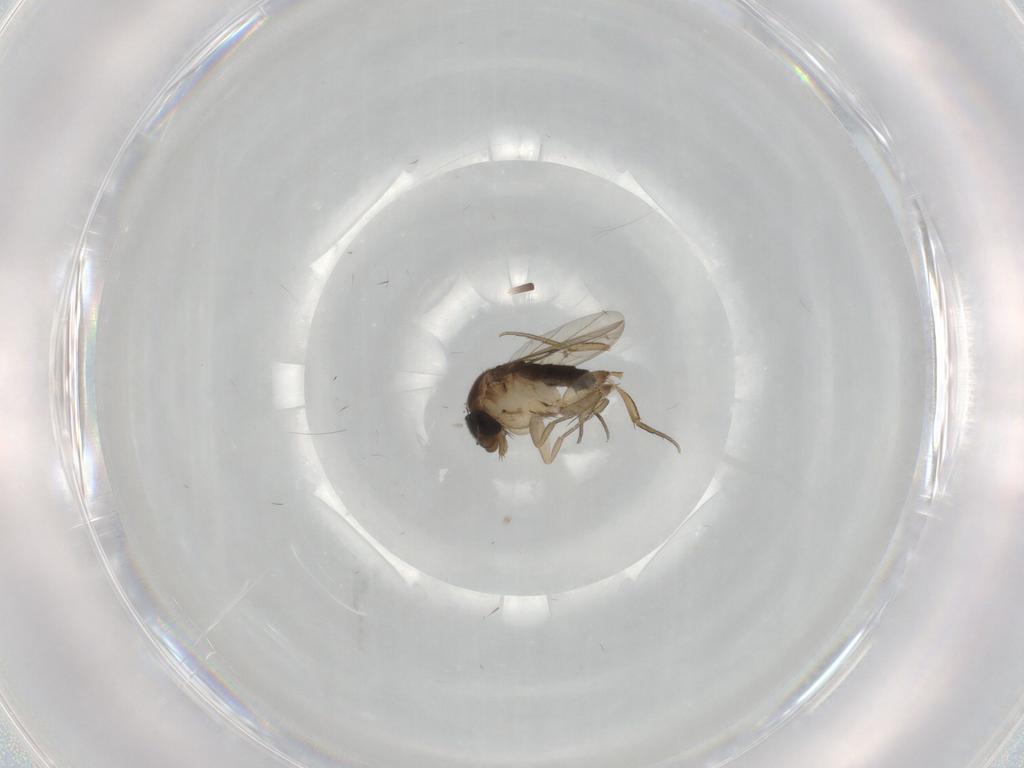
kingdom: Animalia
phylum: Arthropoda
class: Insecta
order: Diptera
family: Phoridae
